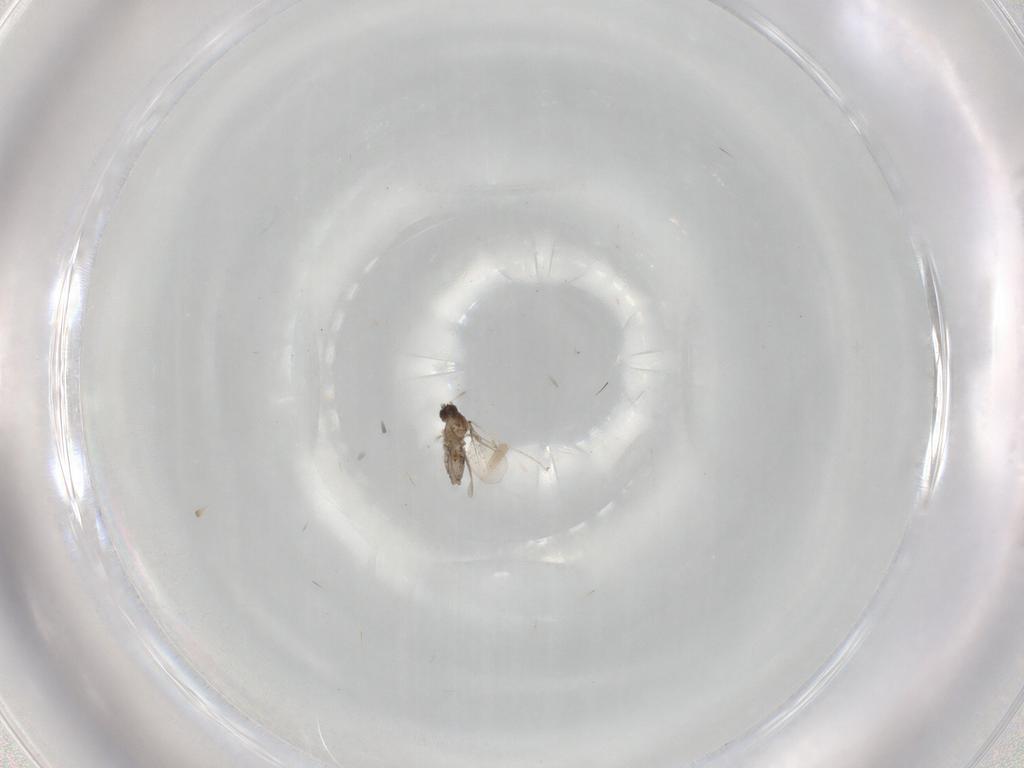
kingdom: Animalia
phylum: Arthropoda
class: Insecta
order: Diptera
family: Cecidomyiidae
